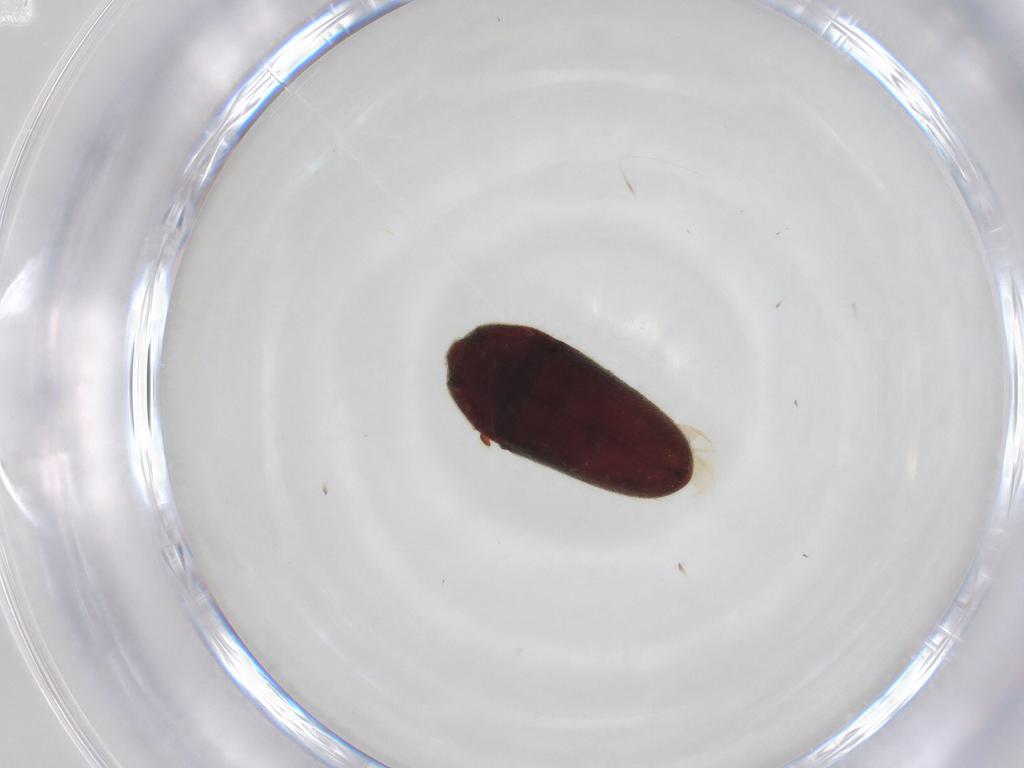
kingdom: Animalia
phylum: Arthropoda
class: Insecta
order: Coleoptera
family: Throscidae
